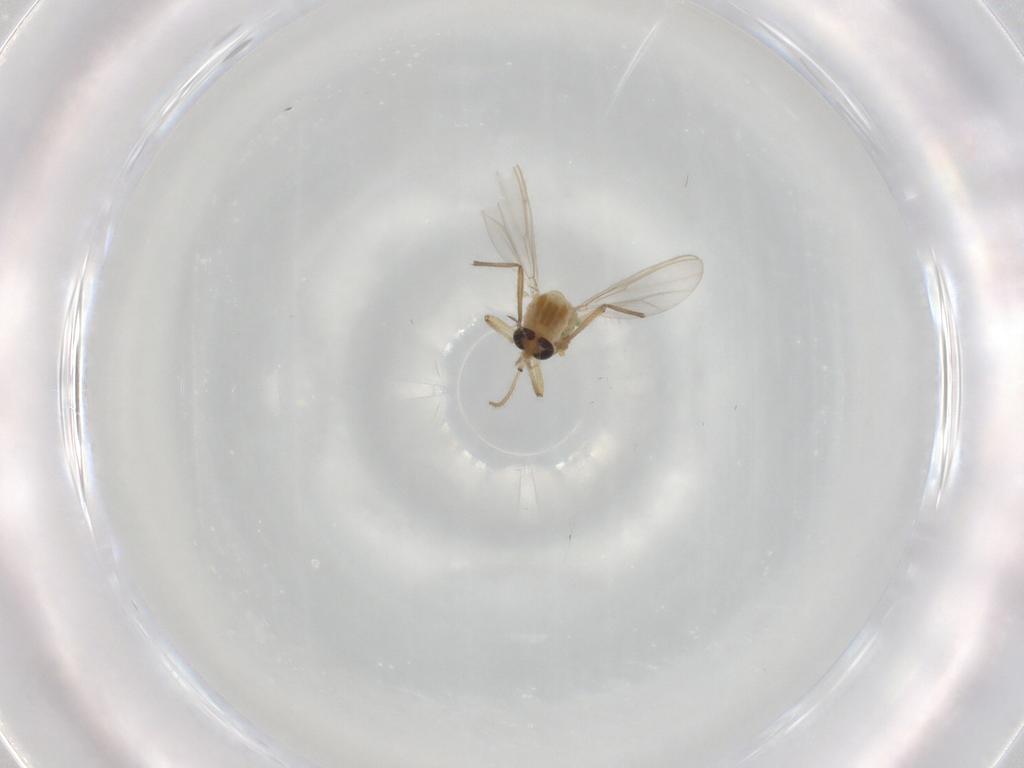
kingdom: Animalia
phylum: Arthropoda
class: Insecta
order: Diptera
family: Chironomidae
